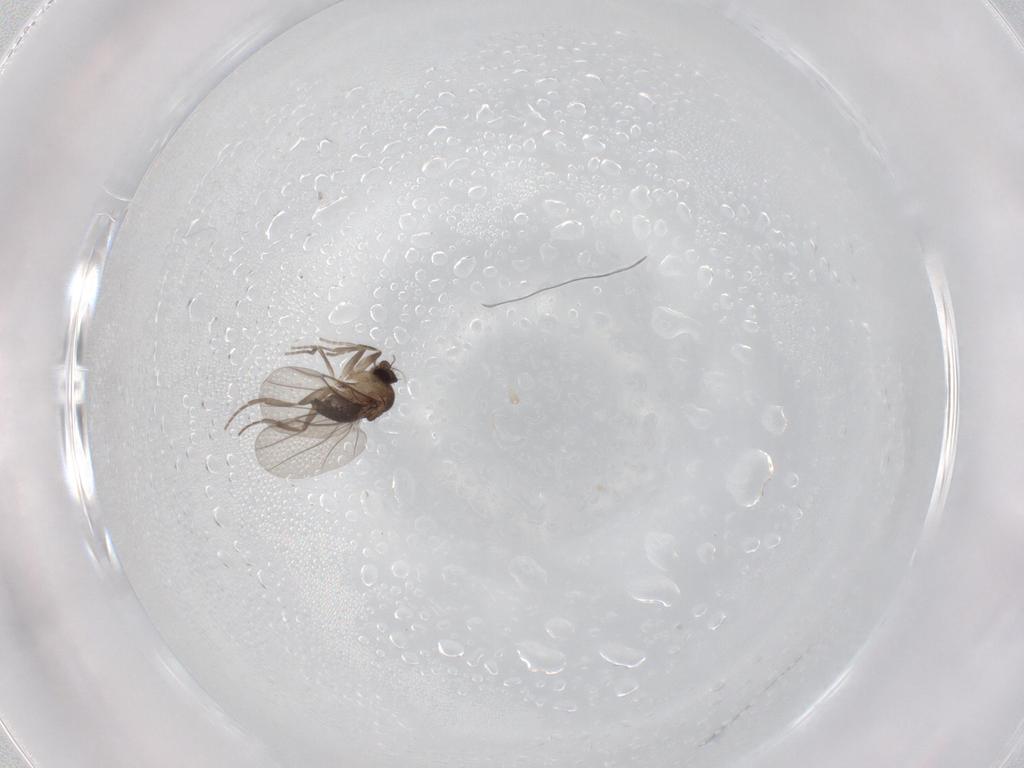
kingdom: Animalia
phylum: Arthropoda
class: Insecta
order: Diptera
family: Phoridae
